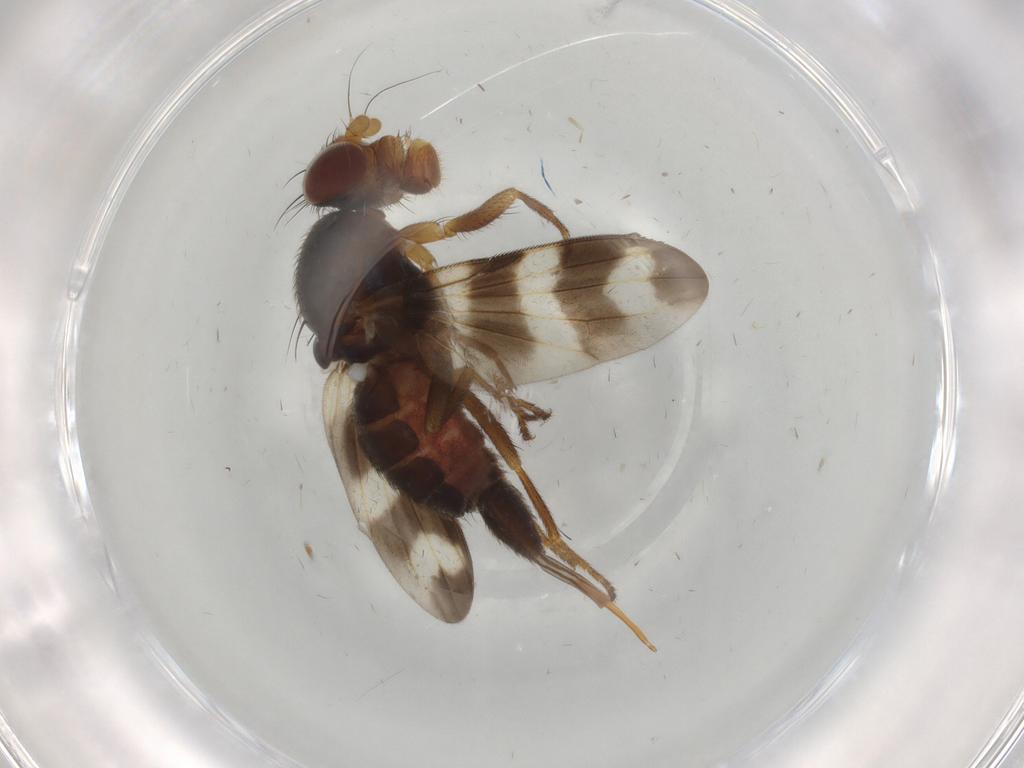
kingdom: Animalia
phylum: Arthropoda
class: Insecta
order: Diptera
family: Ulidiidae
